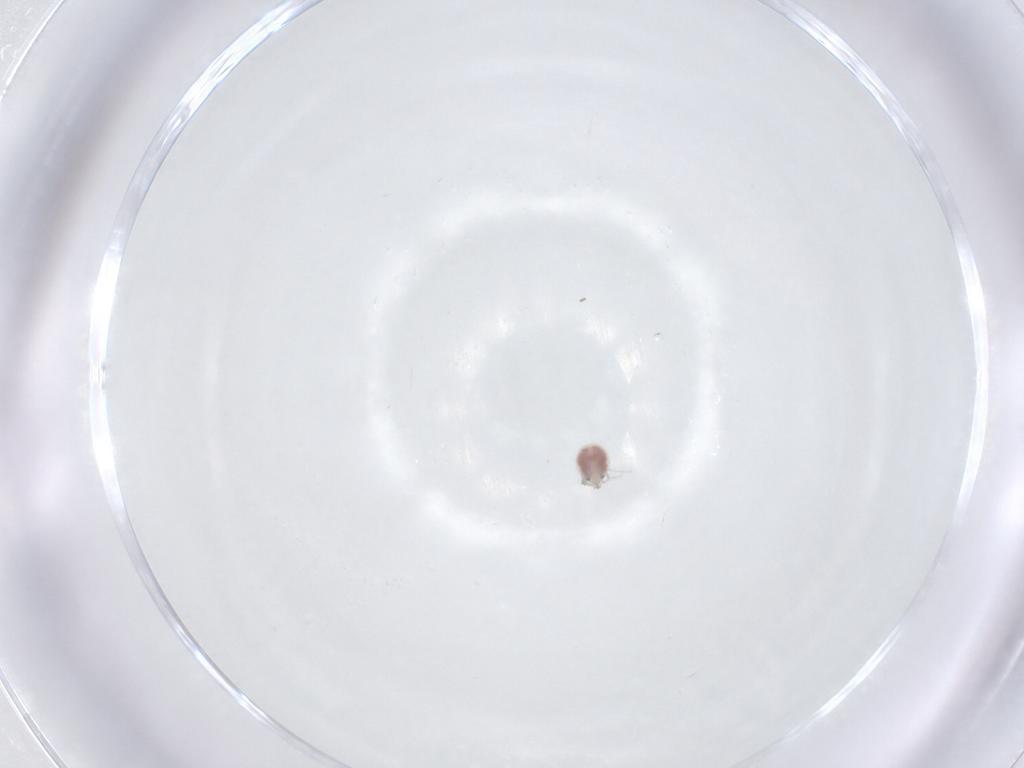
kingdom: Animalia
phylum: Arthropoda
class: Arachnida
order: Trombidiformes
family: Pionidae
